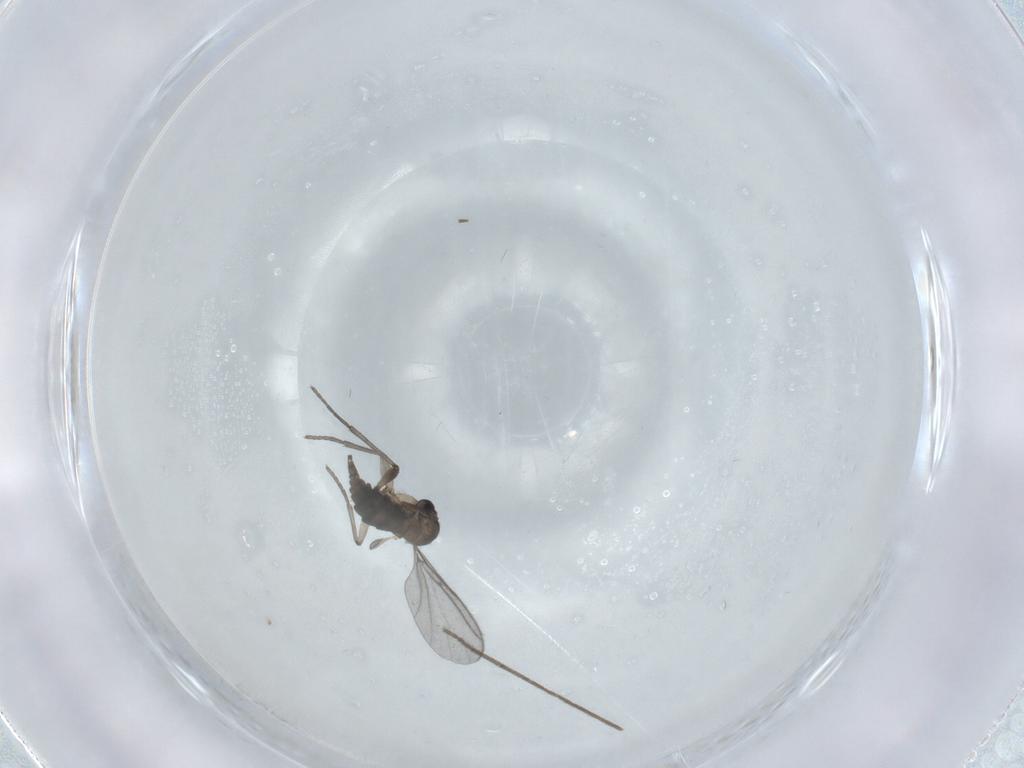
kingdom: Animalia
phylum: Arthropoda
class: Insecta
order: Diptera
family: Sciaridae
